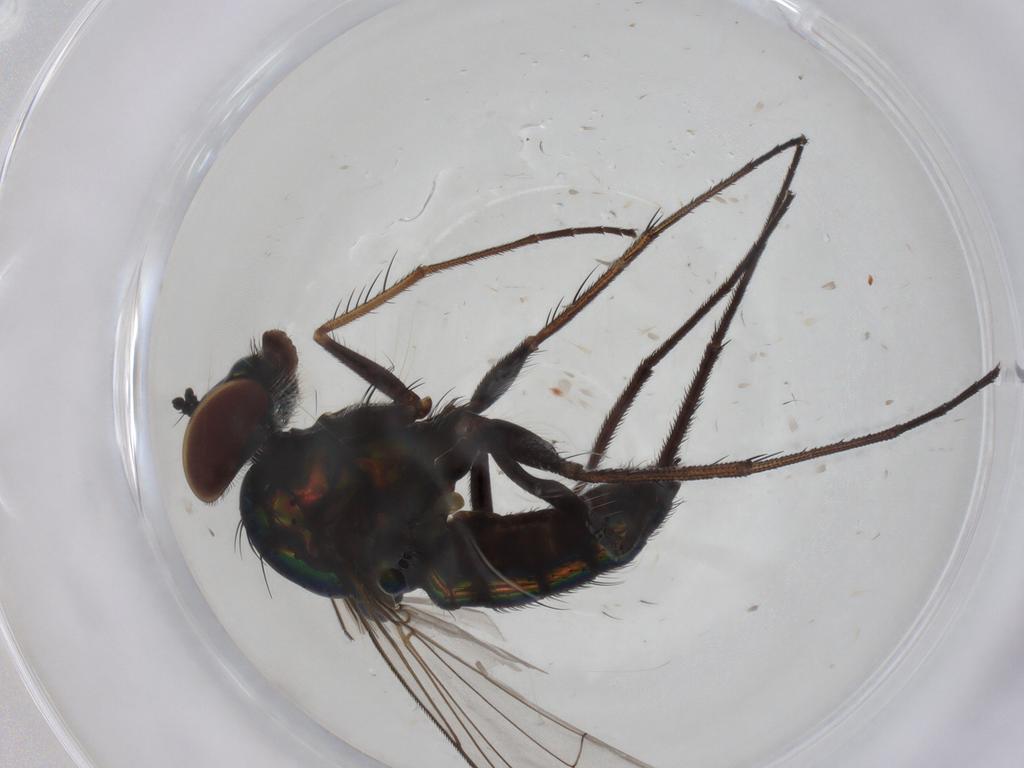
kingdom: Animalia
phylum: Arthropoda
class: Insecta
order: Diptera
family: Dolichopodidae
